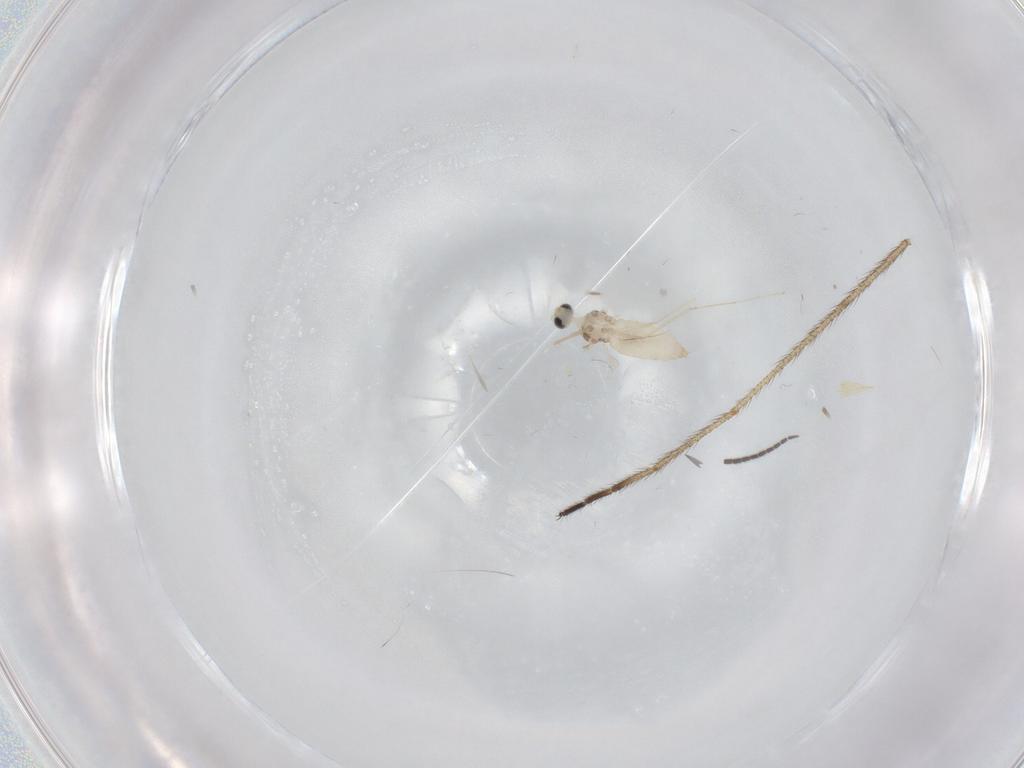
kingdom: Animalia
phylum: Arthropoda
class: Insecta
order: Diptera
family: Cecidomyiidae
